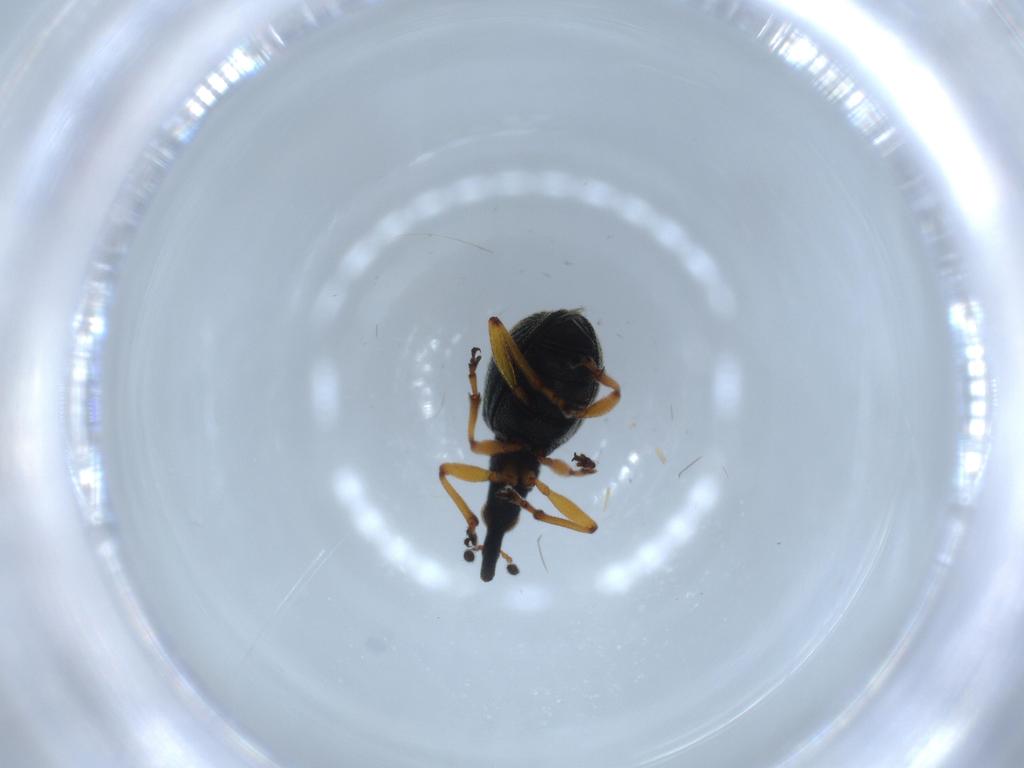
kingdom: Animalia
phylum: Arthropoda
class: Insecta
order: Coleoptera
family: Brentidae
